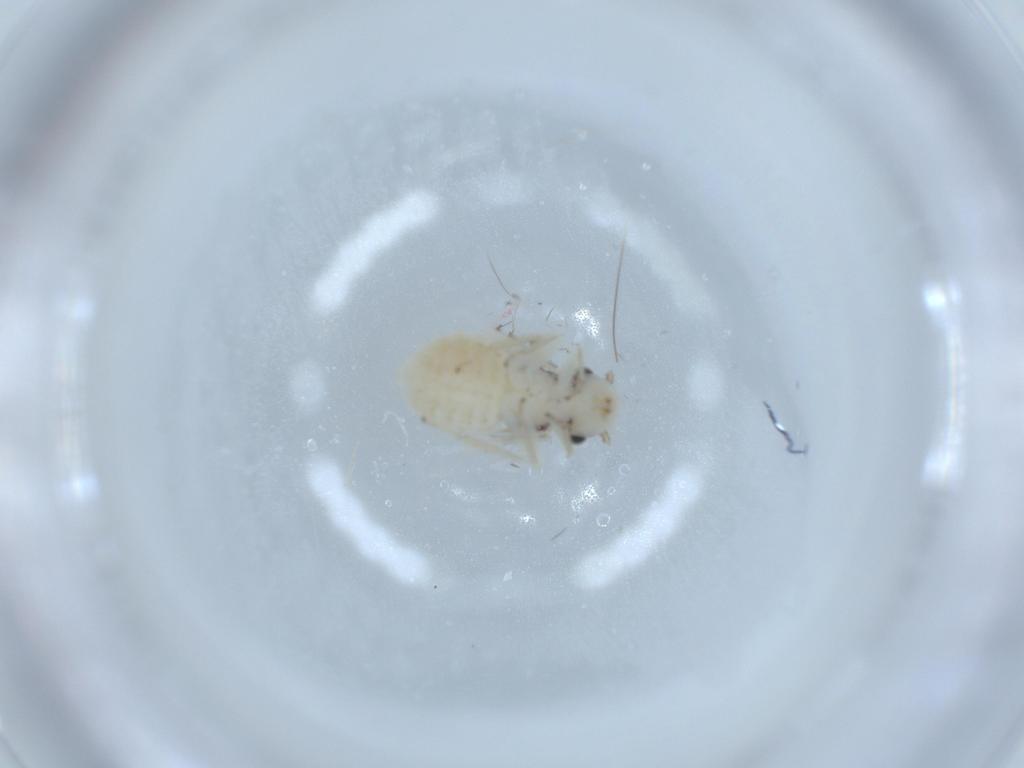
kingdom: Animalia
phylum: Arthropoda
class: Insecta
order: Psocodea
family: Pseudocaeciliidae
